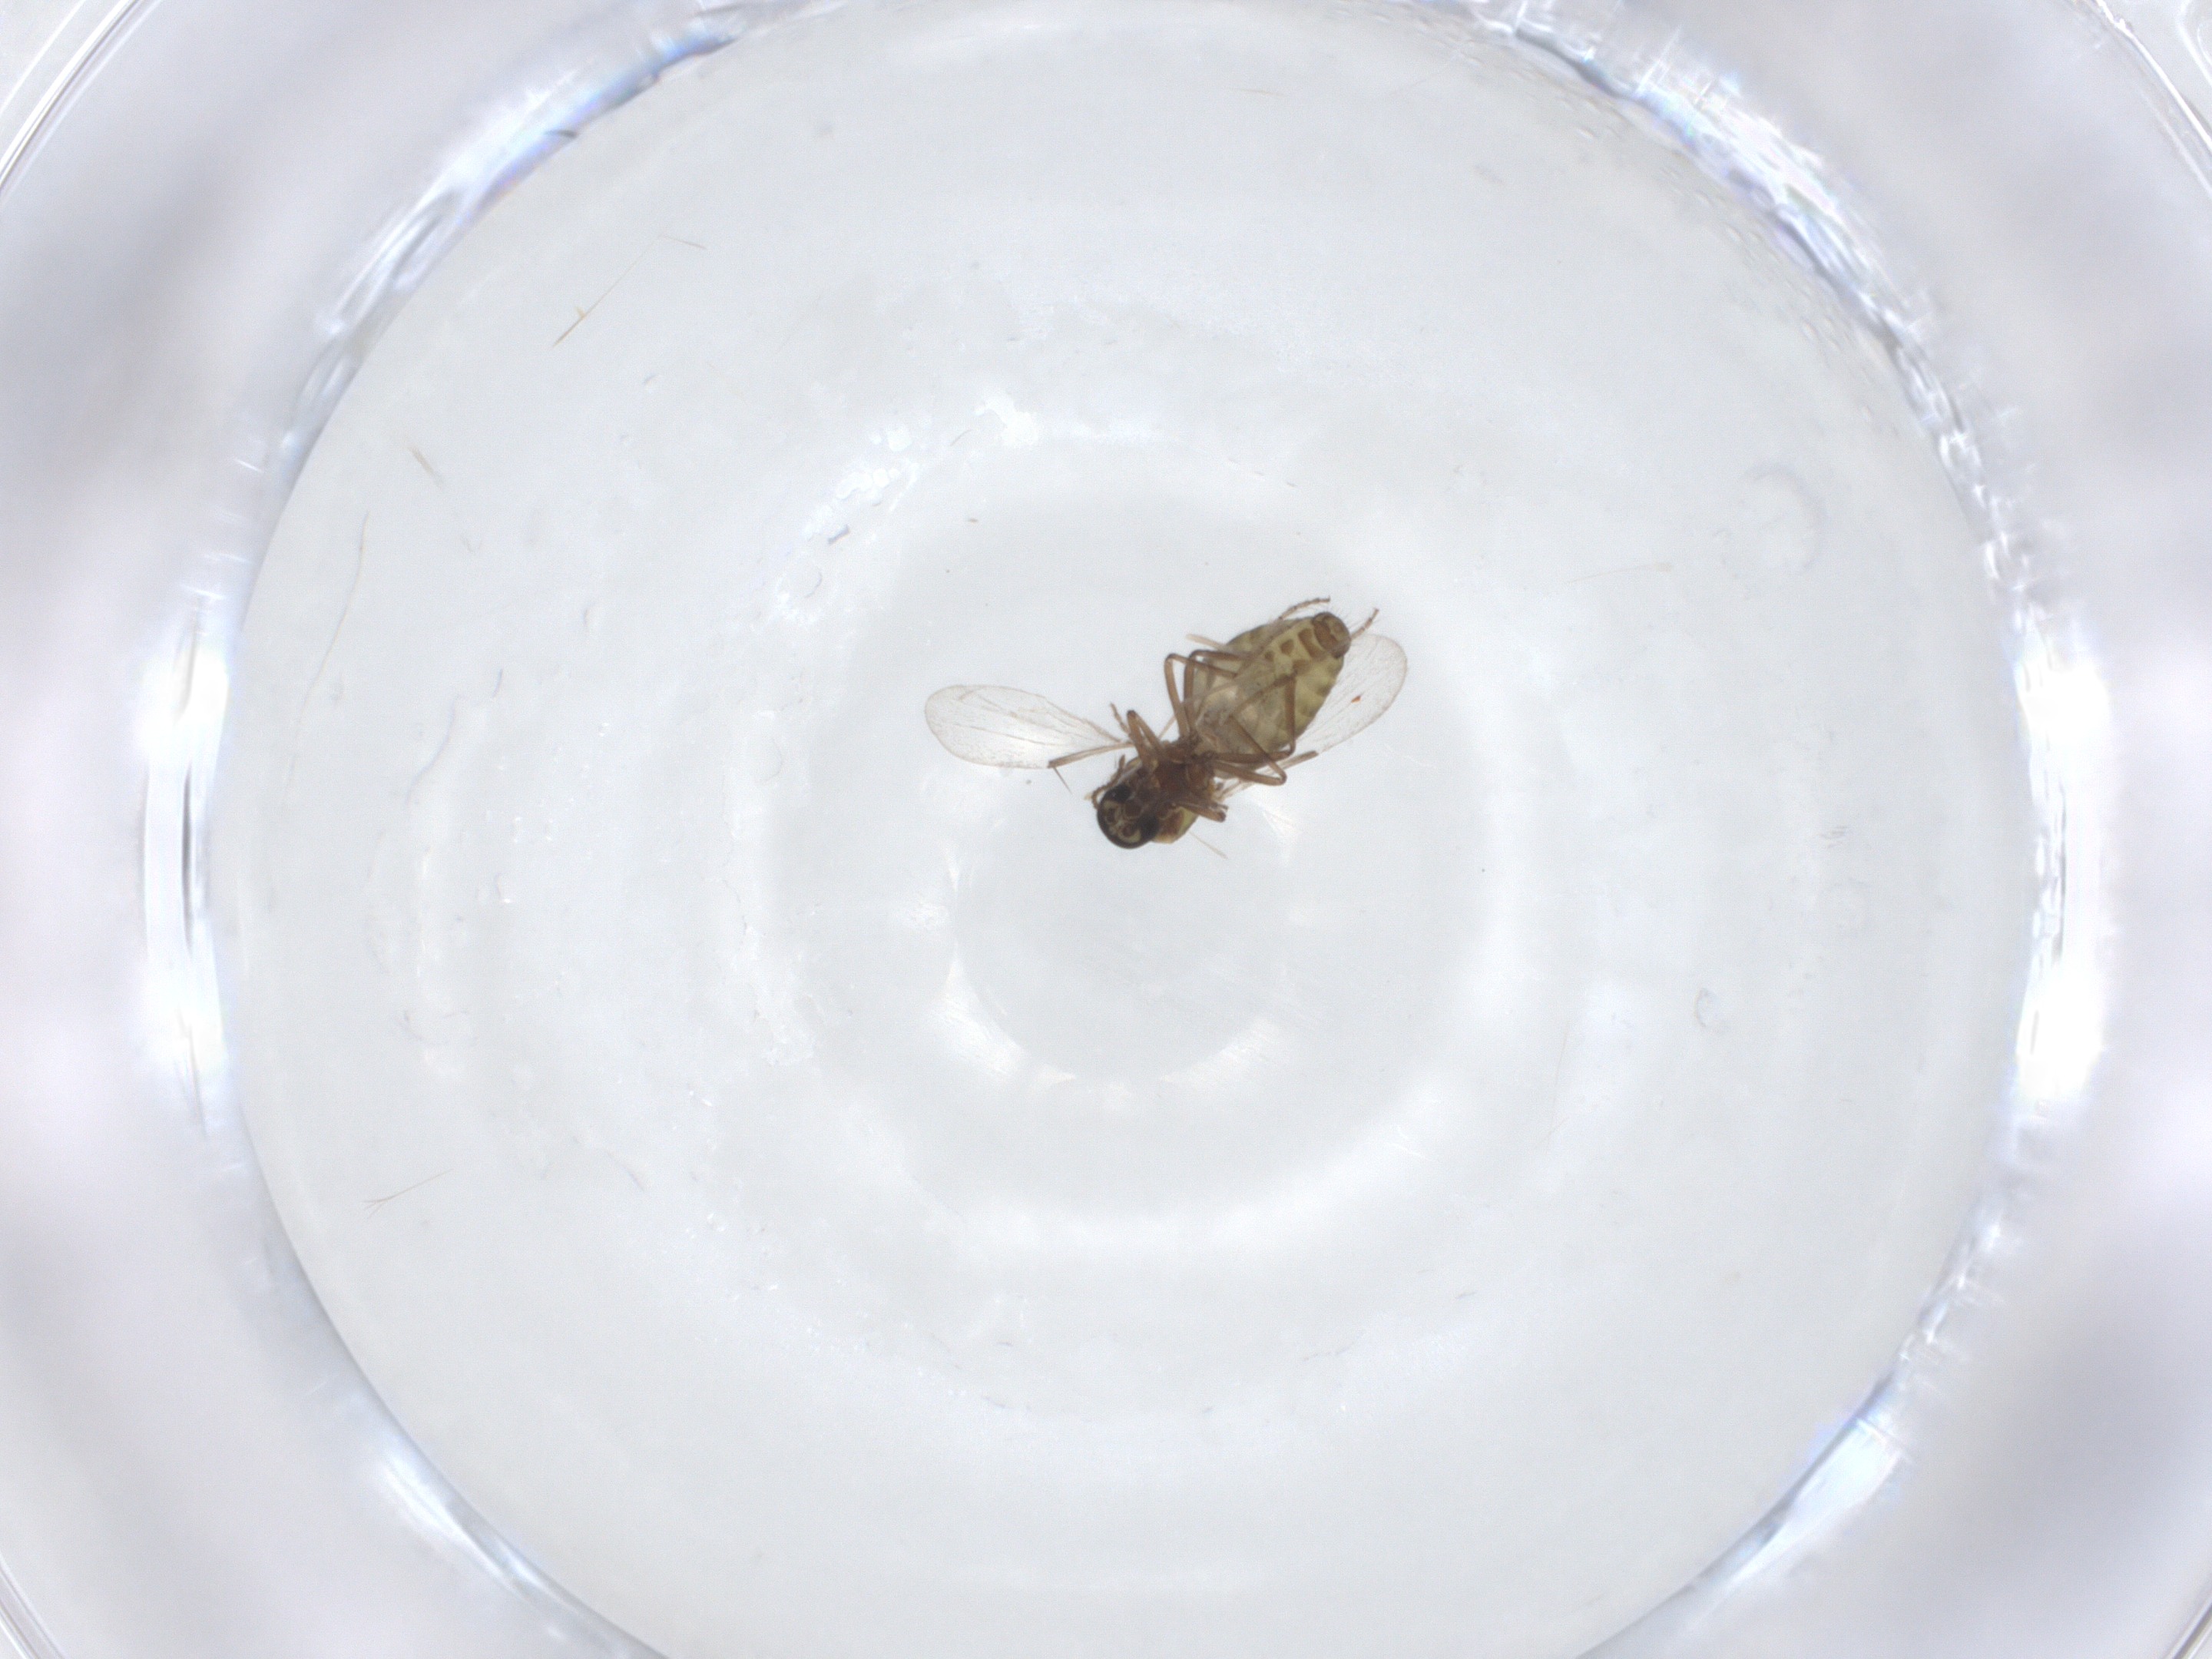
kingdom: Animalia
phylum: Arthropoda
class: Insecta
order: Diptera
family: Ceratopogonidae
